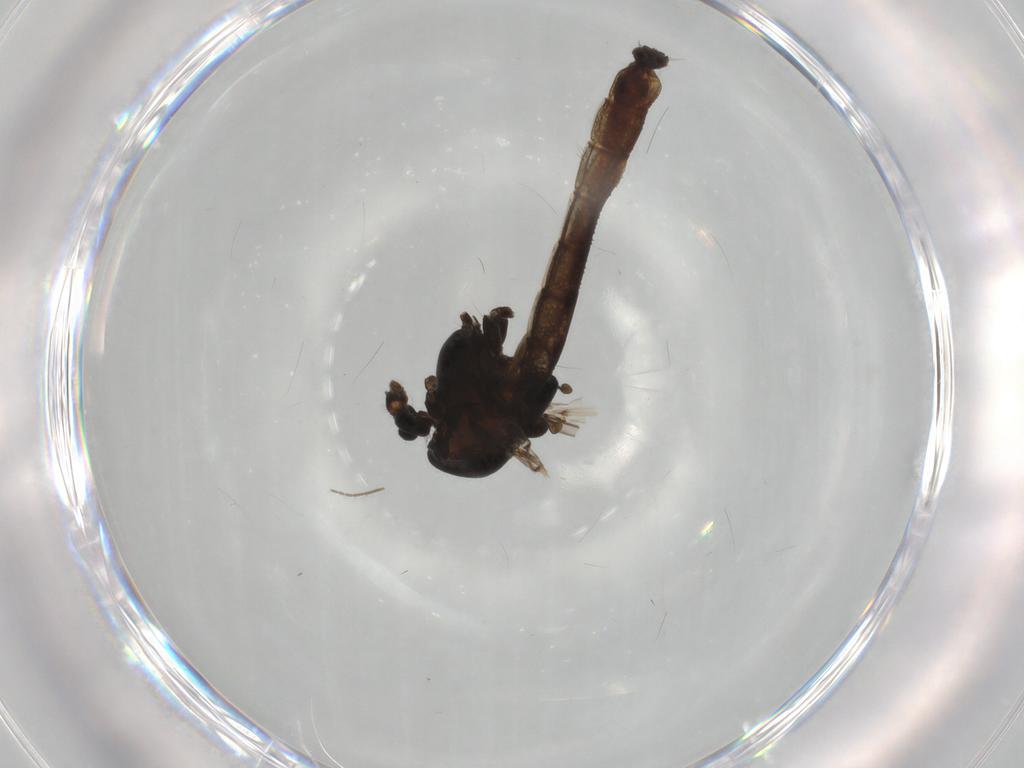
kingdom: Animalia
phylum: Arthropoda
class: Insecta
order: Diptera
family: Chironomidae
